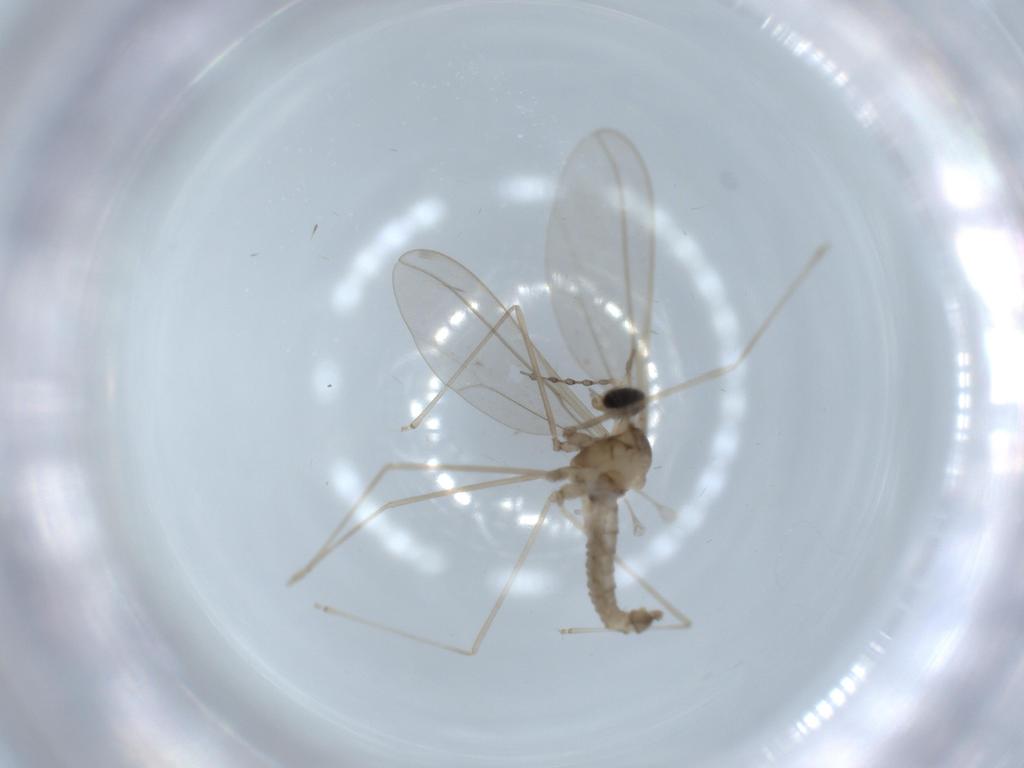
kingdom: Animalia
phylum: Arthropoda
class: Insecta
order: Diptera
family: Cecidomyiidae
